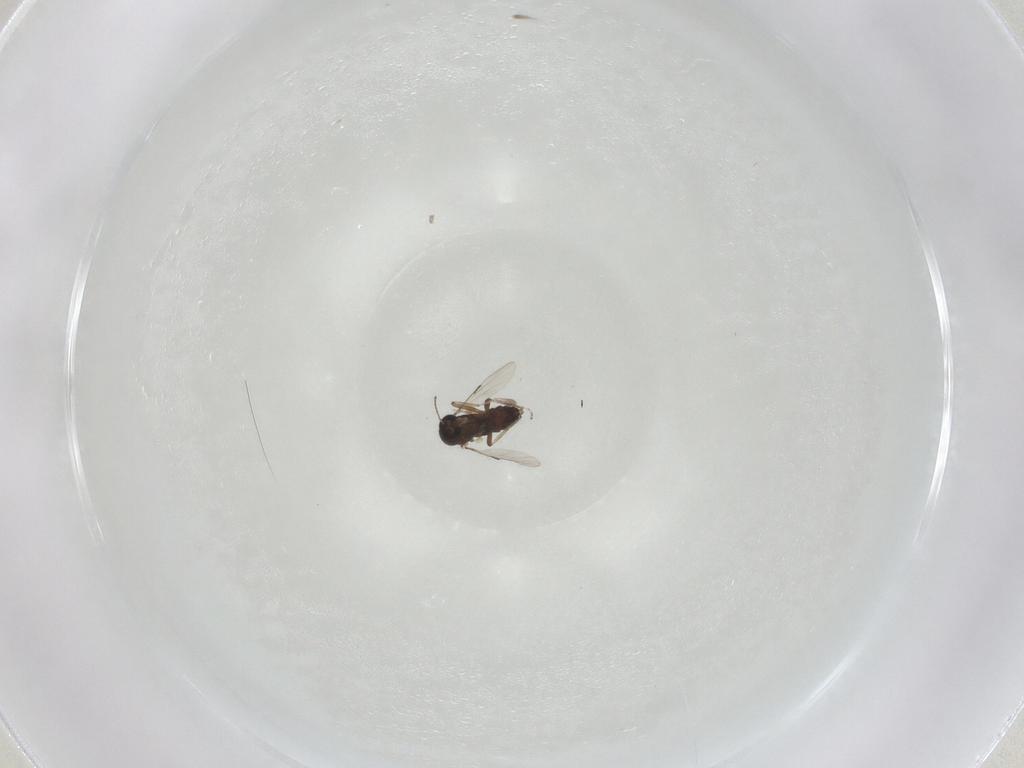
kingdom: Animalia
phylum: Arthropoda
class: Insecta
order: Diptera
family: Ceratopogonidae
